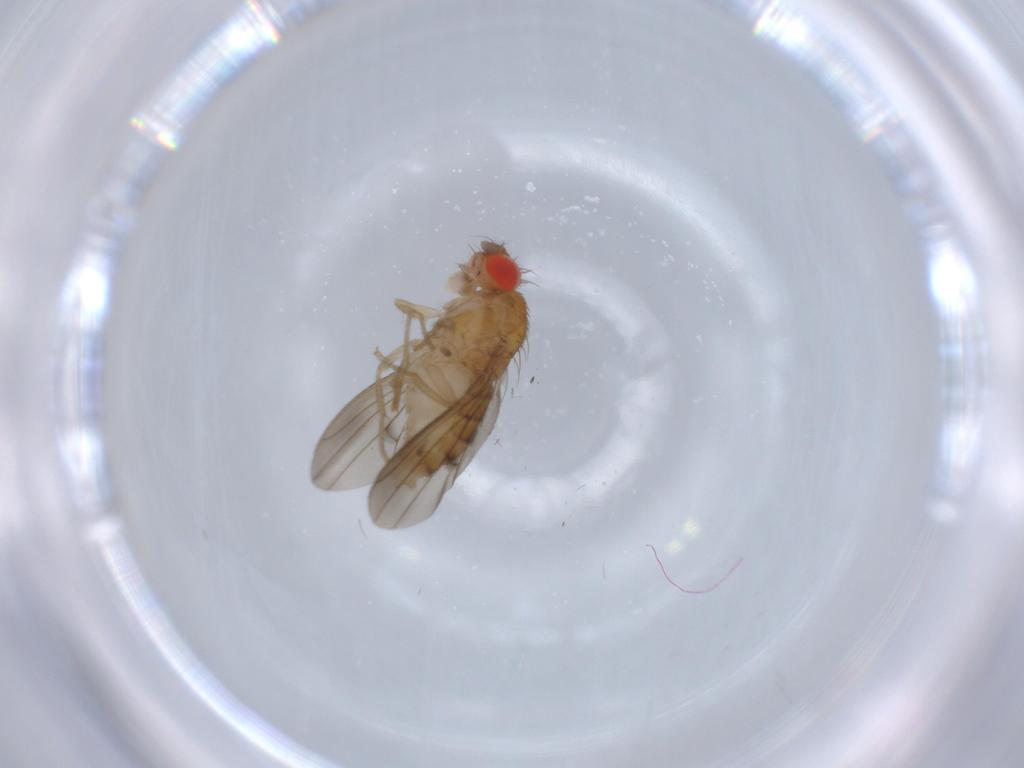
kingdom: Animalia
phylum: Arthropoda
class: Insecta
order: Diptera
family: Drosophilidae
